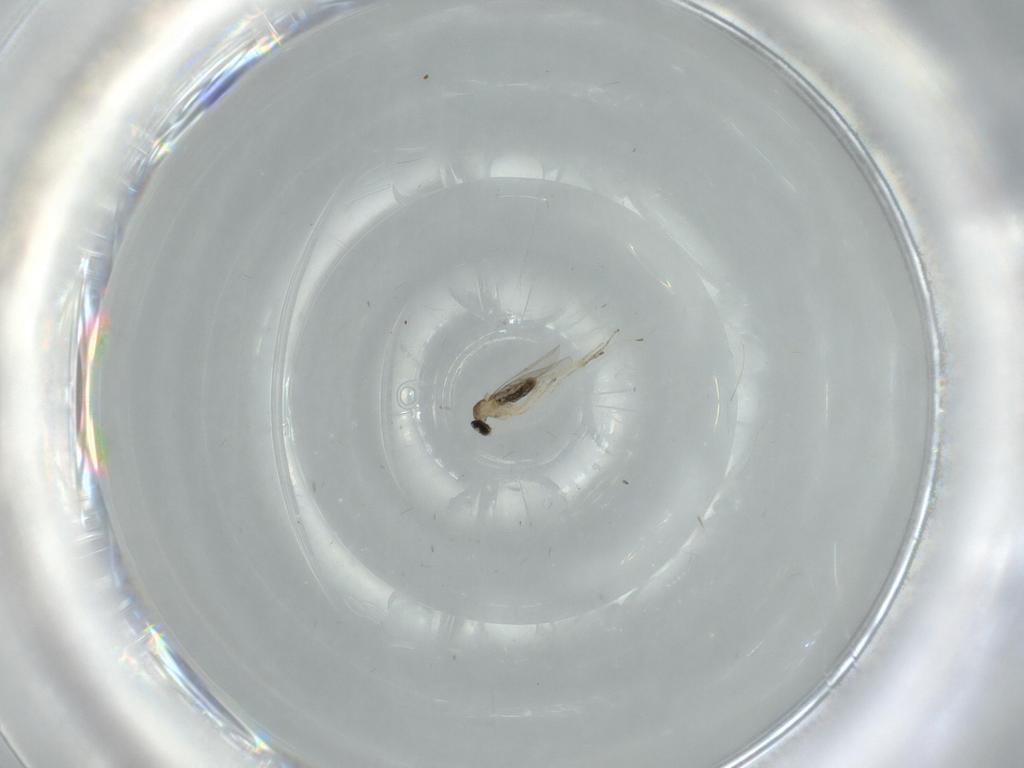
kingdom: Animalia
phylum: Arthropoda
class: Insecta
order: Diptera
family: Cecidomyiidae
